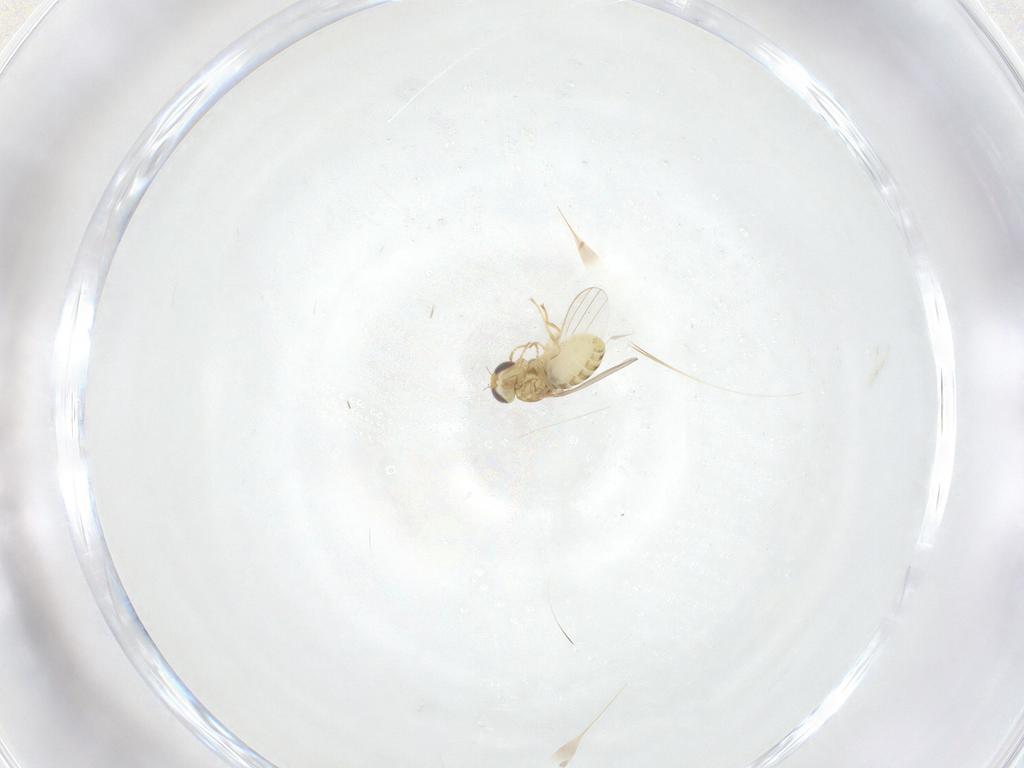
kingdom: Animalia
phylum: Arthropoda
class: Insecta
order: Diptera
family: Chyromyidae
